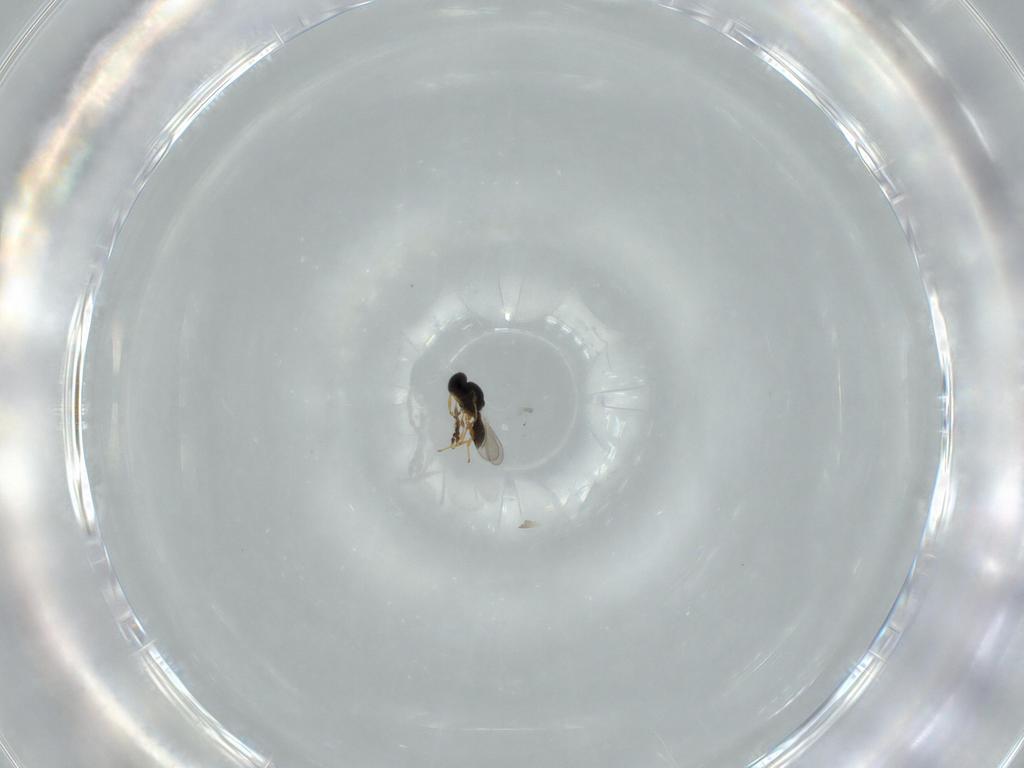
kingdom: Animalia
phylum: Arthropoda
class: Insecta
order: Hymenoptera
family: Platygastridae
